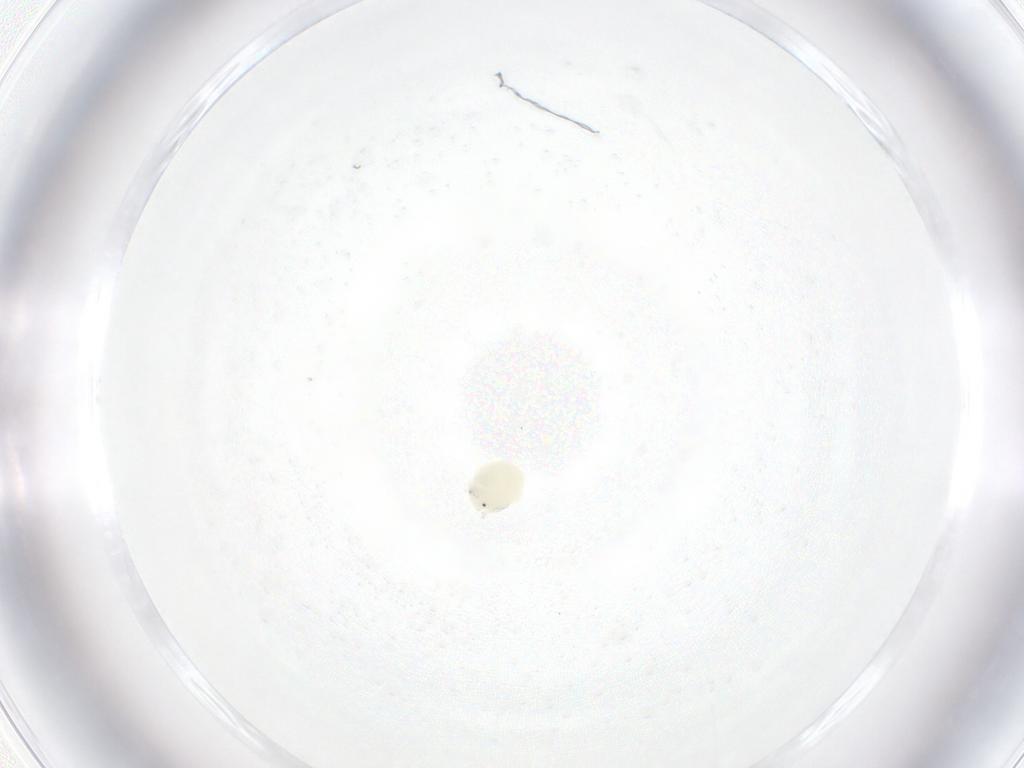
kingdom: Animalia
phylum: Arthropoda
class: Arachnida
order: Trombidiformes
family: Arrenuridae
